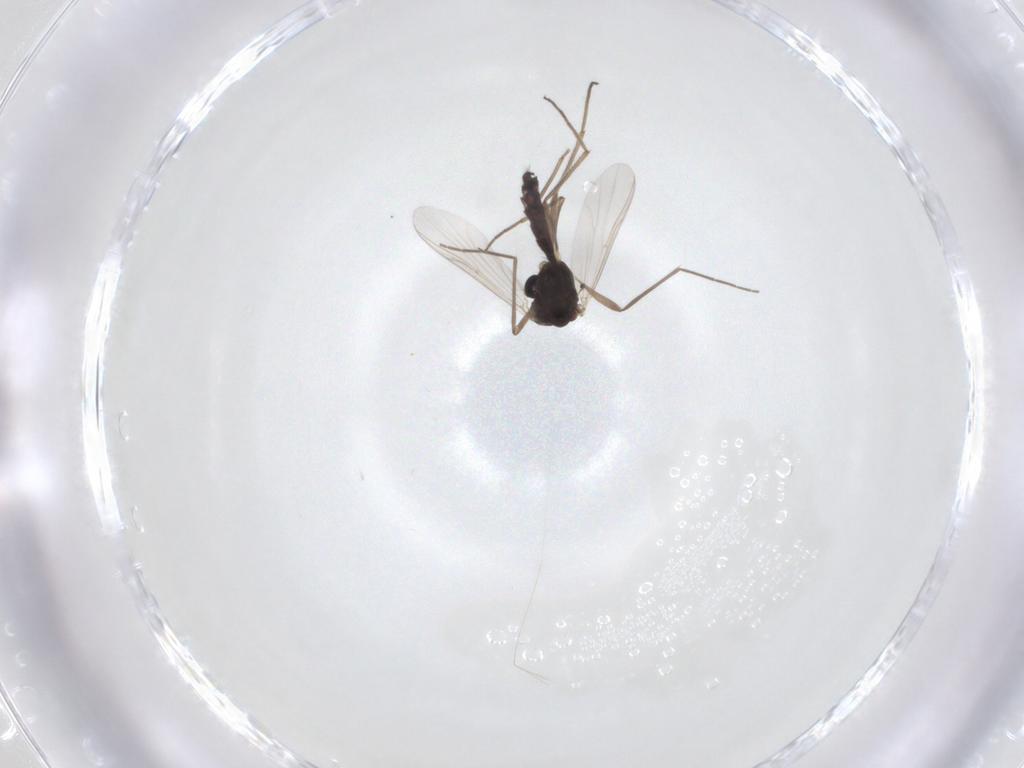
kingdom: Animalia
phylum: Arthropoda
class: Insecta
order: Diptera
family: Chironomidae
